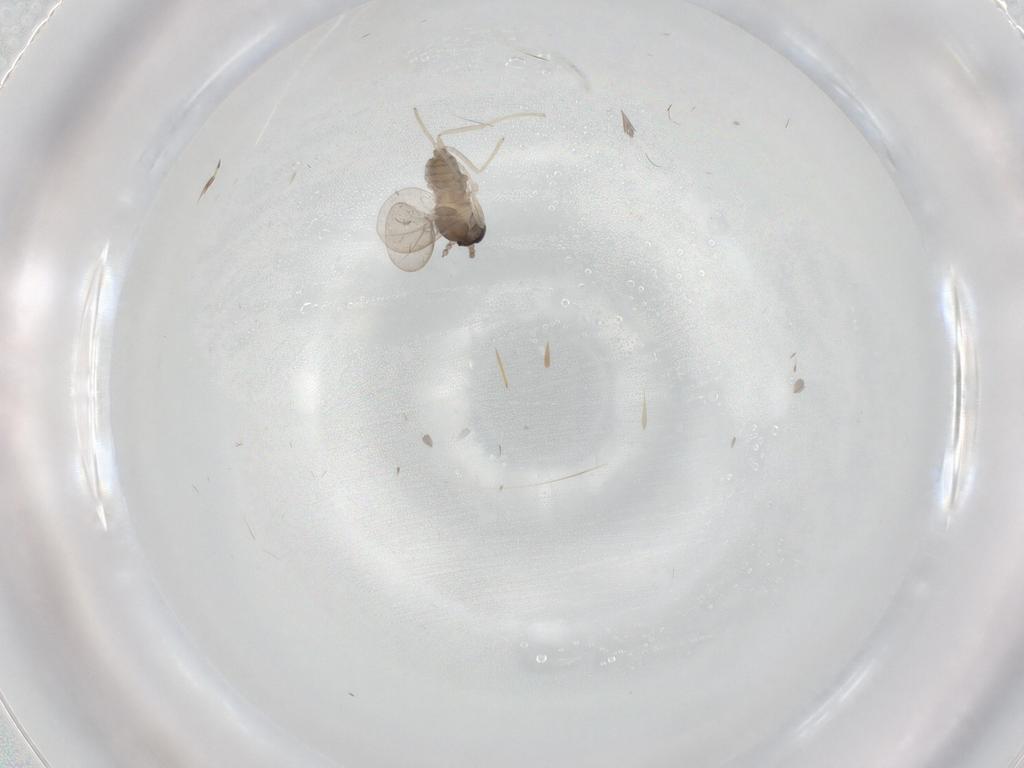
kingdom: Animalia
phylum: Arthropoda
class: Insecta
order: Diptera
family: Cecidomyiidae
